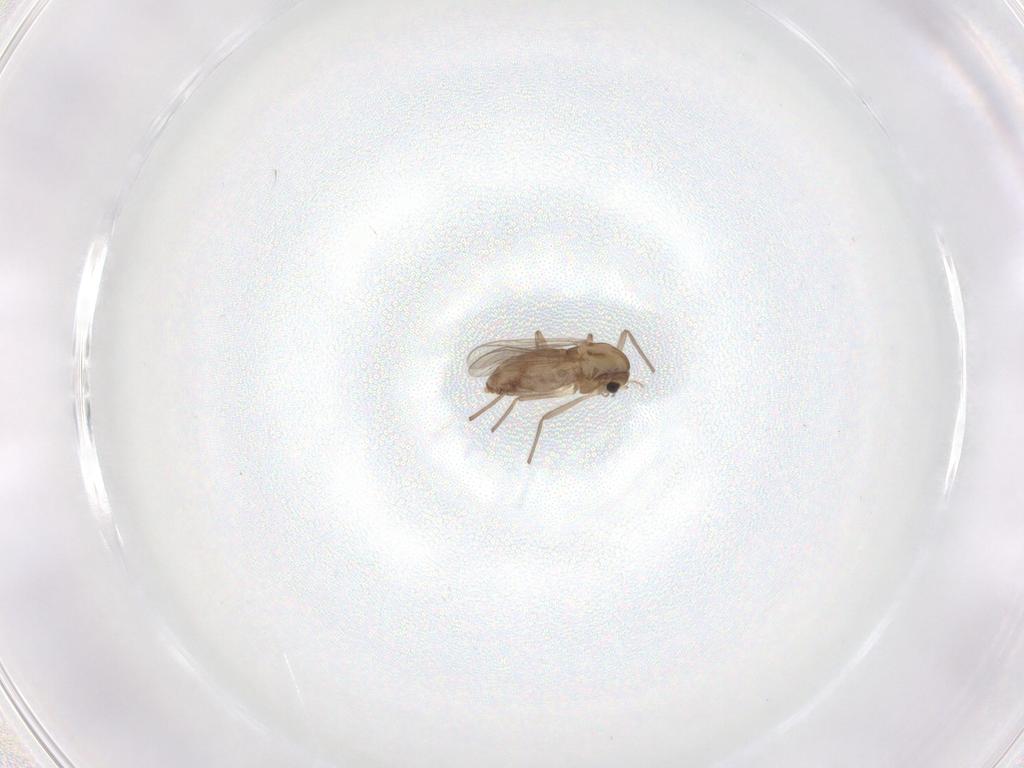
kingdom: Animalia
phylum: Arthropoda
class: Insecta
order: Diptera
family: Chironomidae
